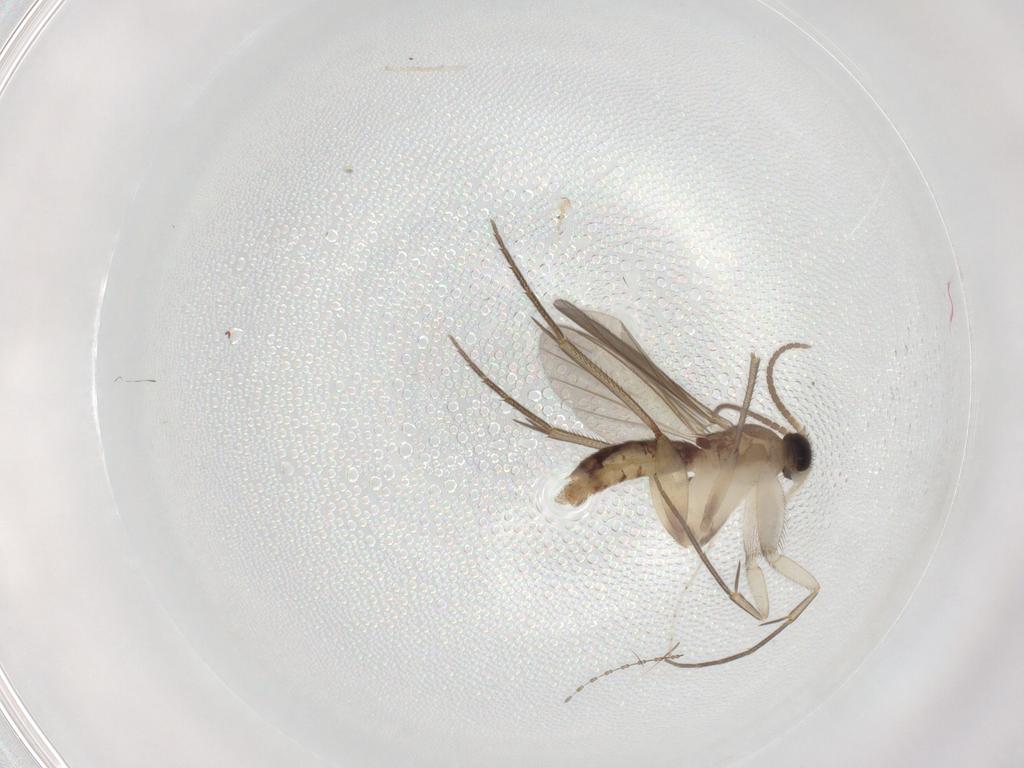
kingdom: Animalia
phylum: Arthropoda
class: Insecta
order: Diptera
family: Mycetophilidae
